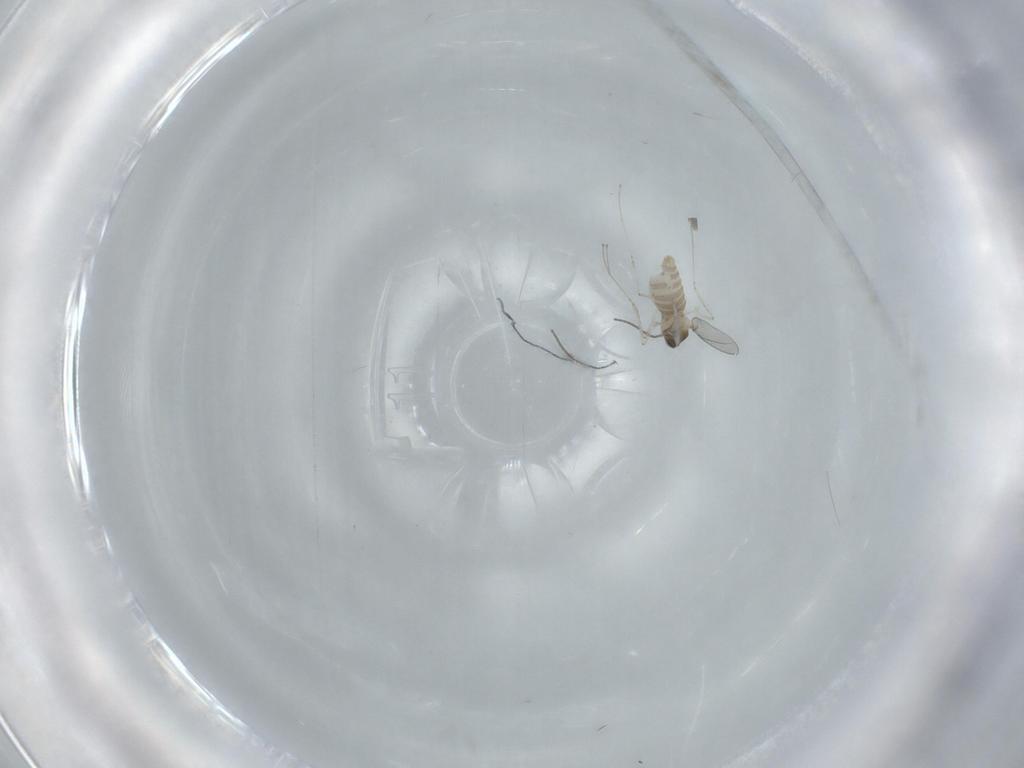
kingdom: Animalia
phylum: Arthropoda
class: Insecta
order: Diptera
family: Cecidomyiidae
